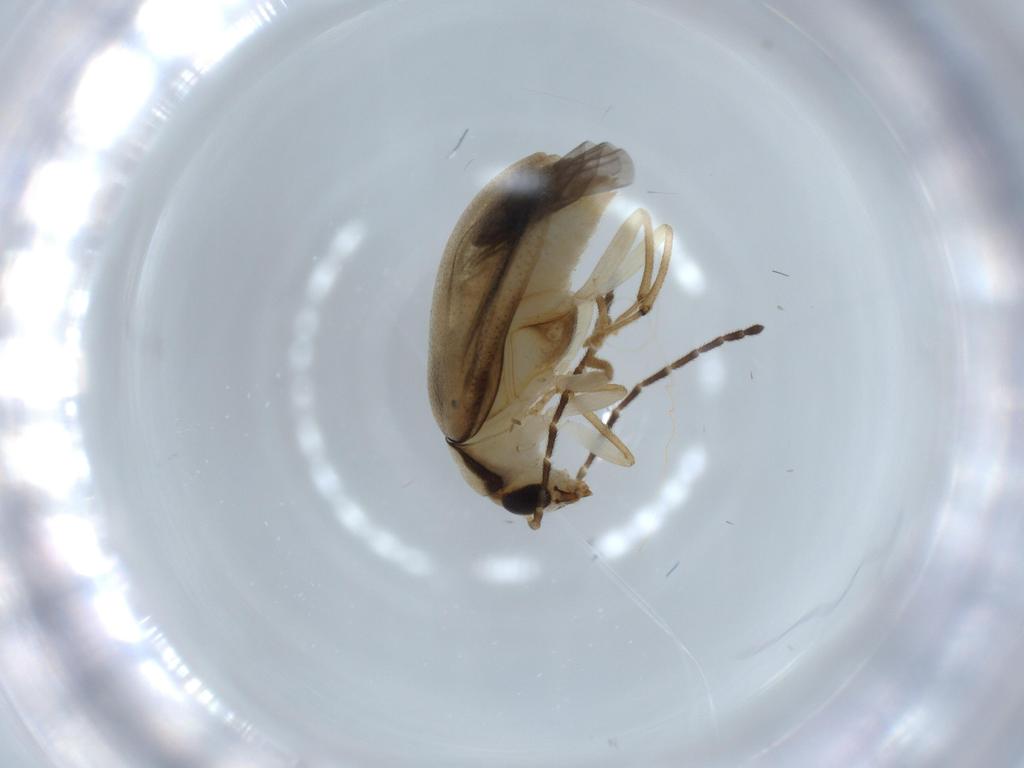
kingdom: Animalia
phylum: Arthropoda
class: Insecta
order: Coleoptera
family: Chrysomelidae
